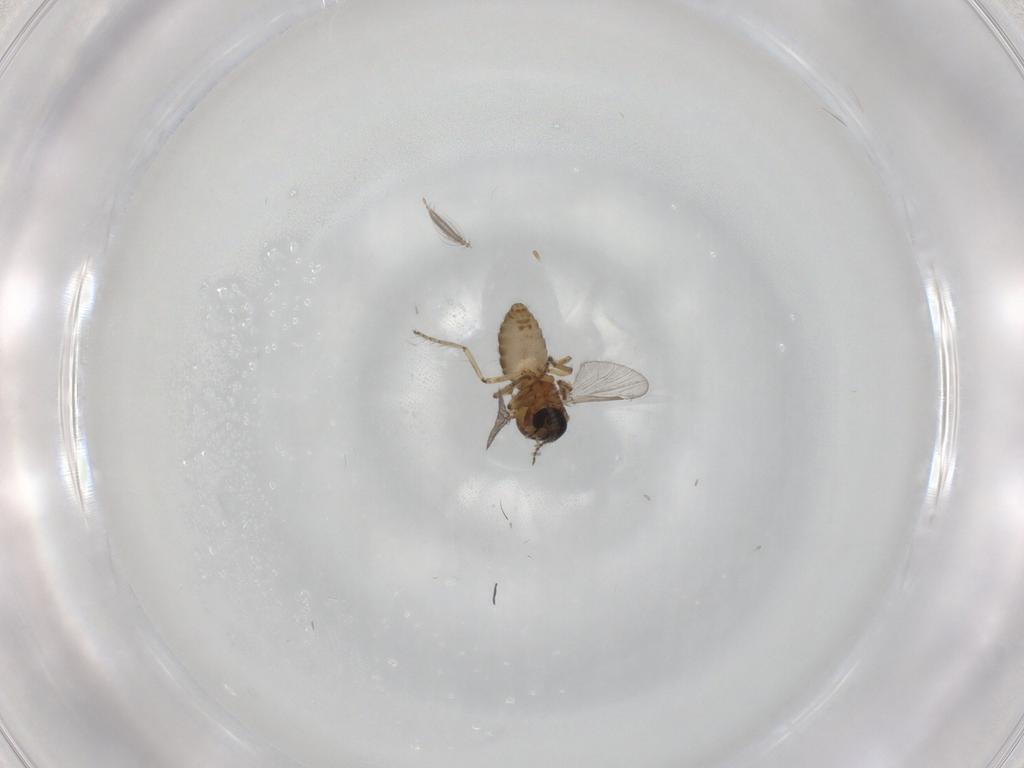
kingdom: Animalia
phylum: Arthropoda
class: Insecta
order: Diptera
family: Ceratopogonidae
